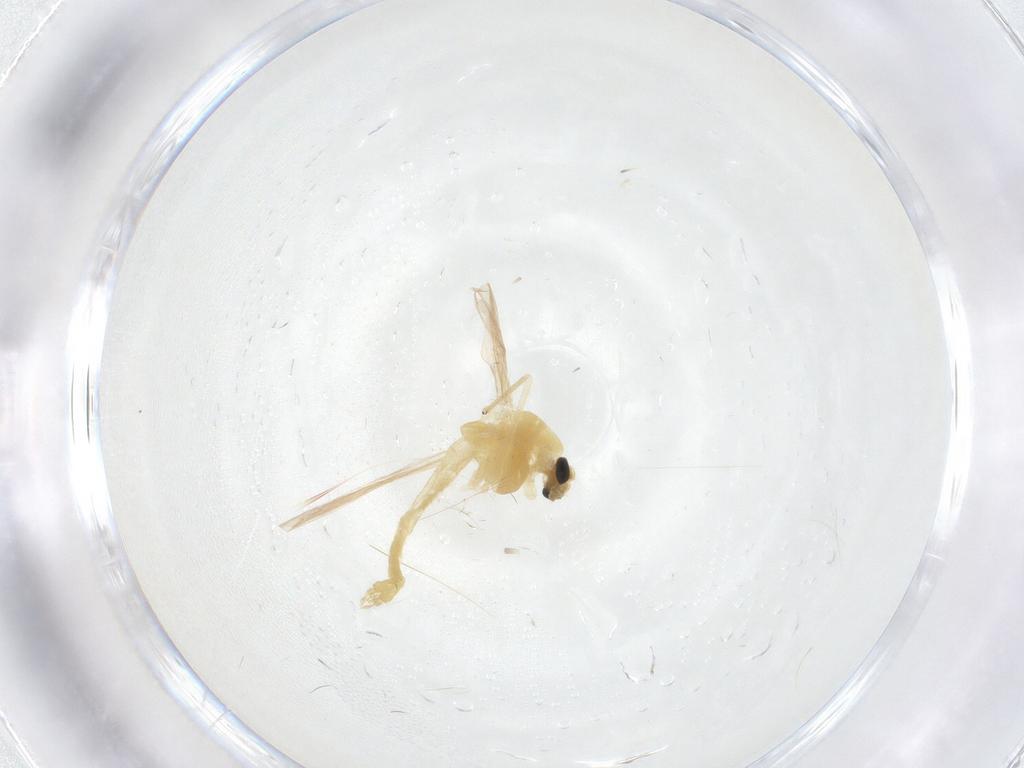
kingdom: Animalia
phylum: Arthropoda
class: Insecta
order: Diptera
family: Chironomidae
